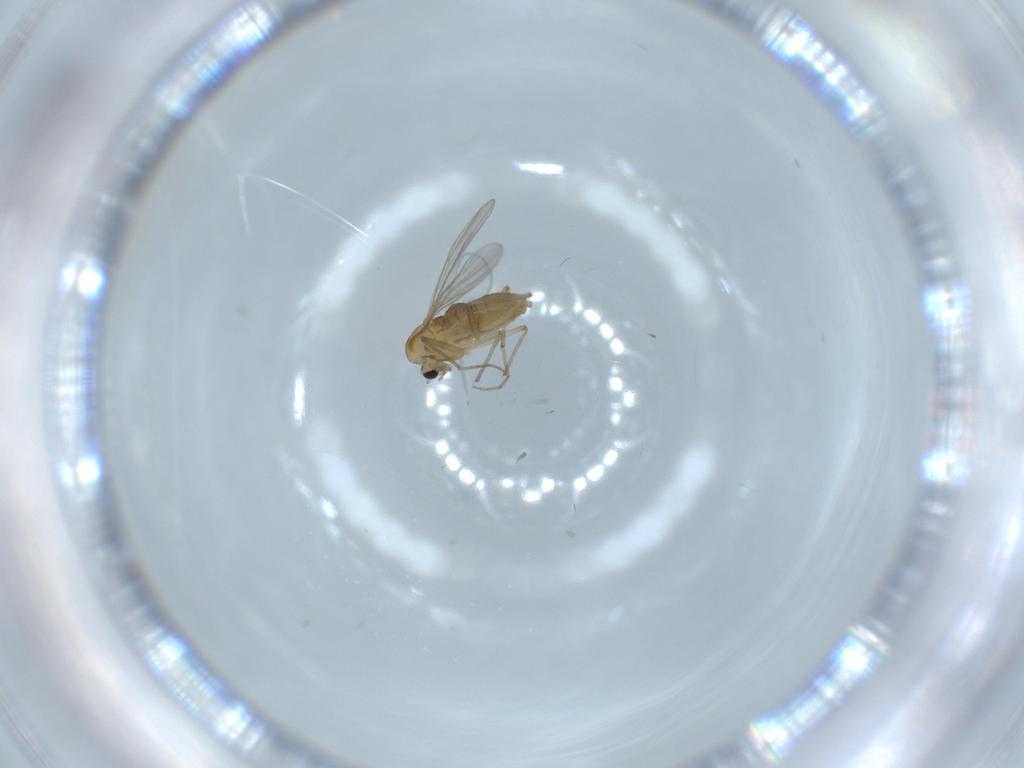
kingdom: Animalia
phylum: Arthropoda
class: Insecta
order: Diptera
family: Chironomidae
